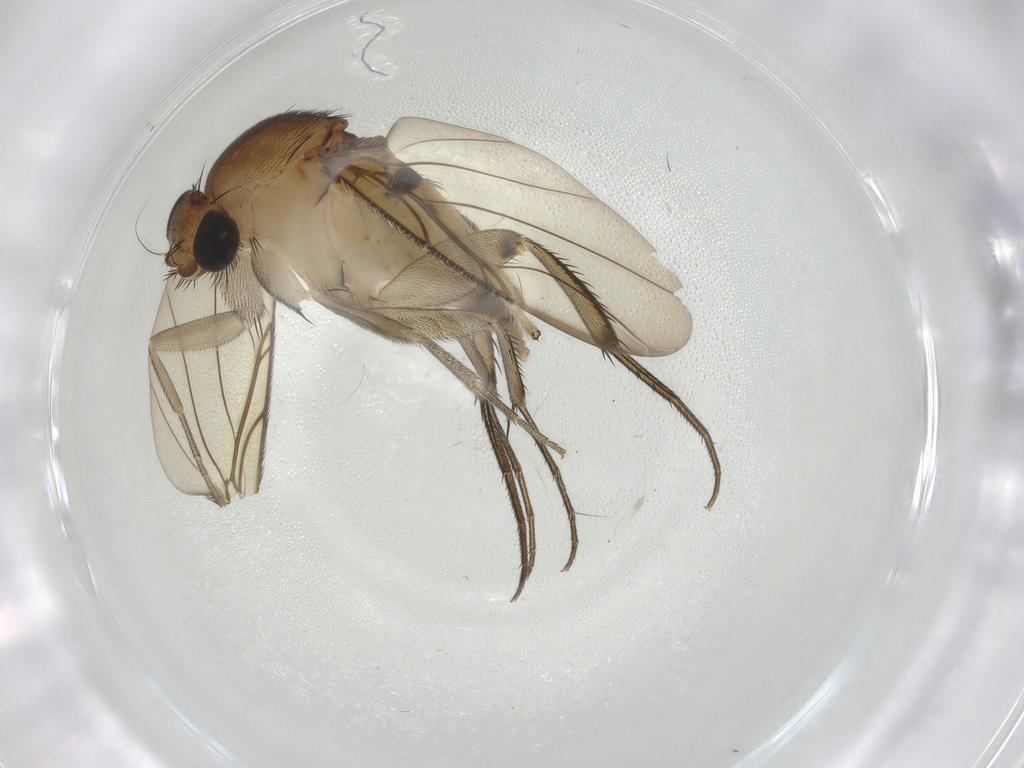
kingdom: Animalia
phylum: Arthropoda
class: Insecta
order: Diptera
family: Phoridae
